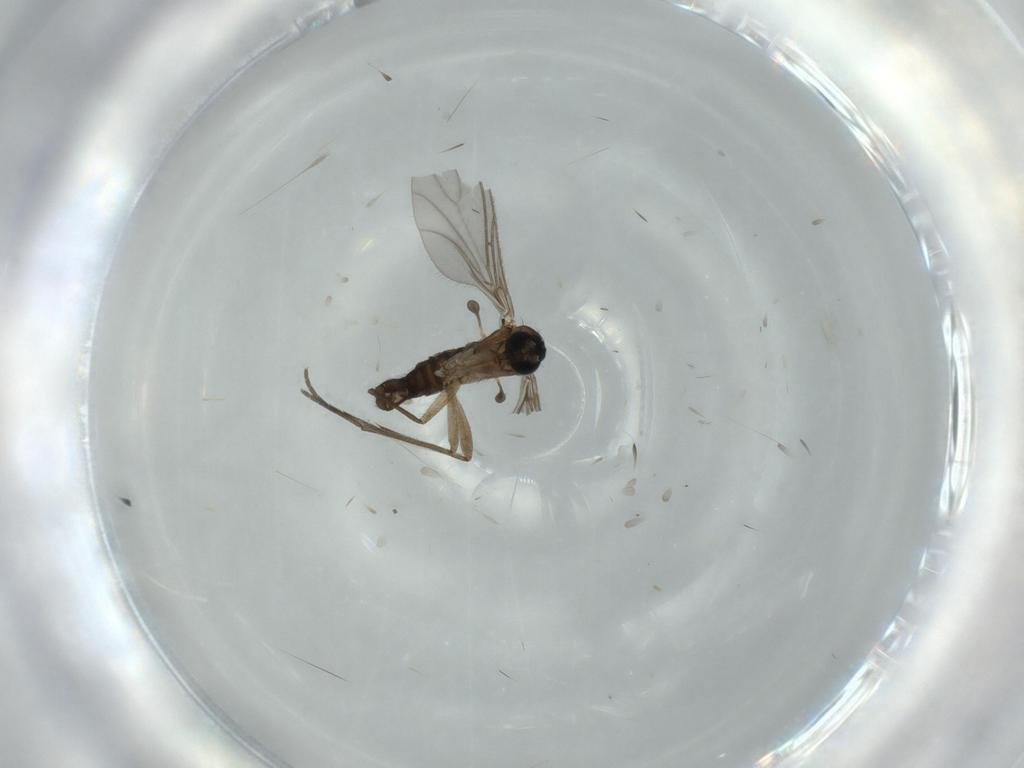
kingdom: Animalia
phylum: Arthropoda
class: Insecta
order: Diptera
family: Sciaridae
